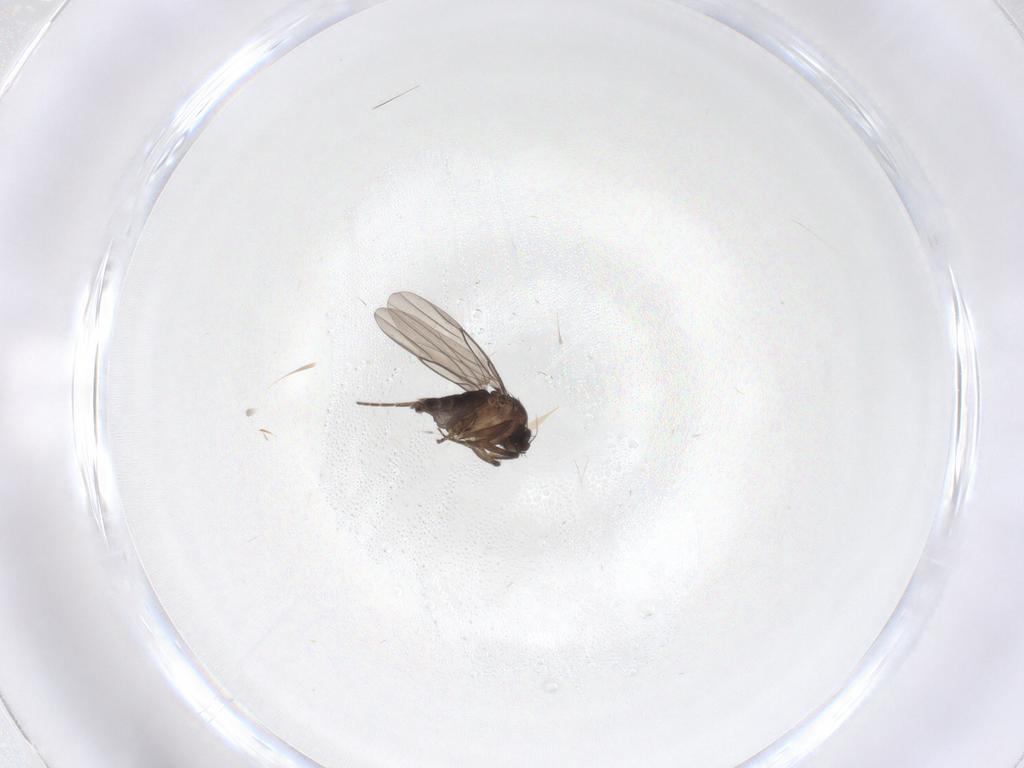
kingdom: Animalia
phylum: Arthropoda
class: Insecta
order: Diptera
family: Phoridae
